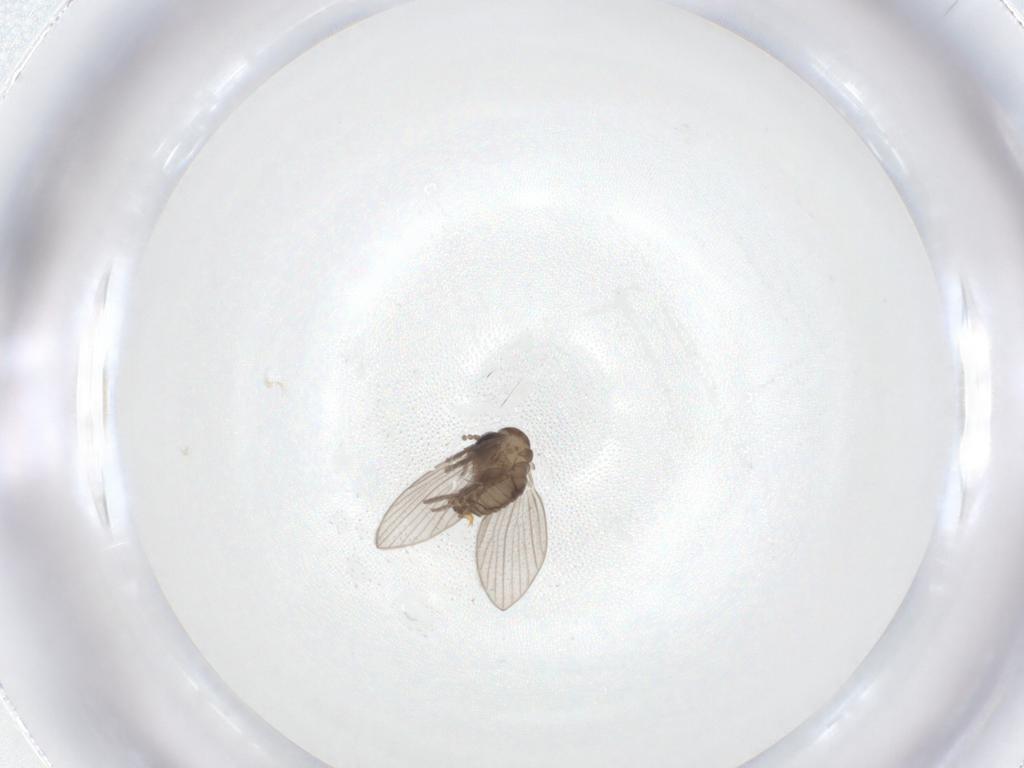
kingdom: Animalia
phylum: Arthropoda
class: Insecta
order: Diptera
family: Psychodidae
